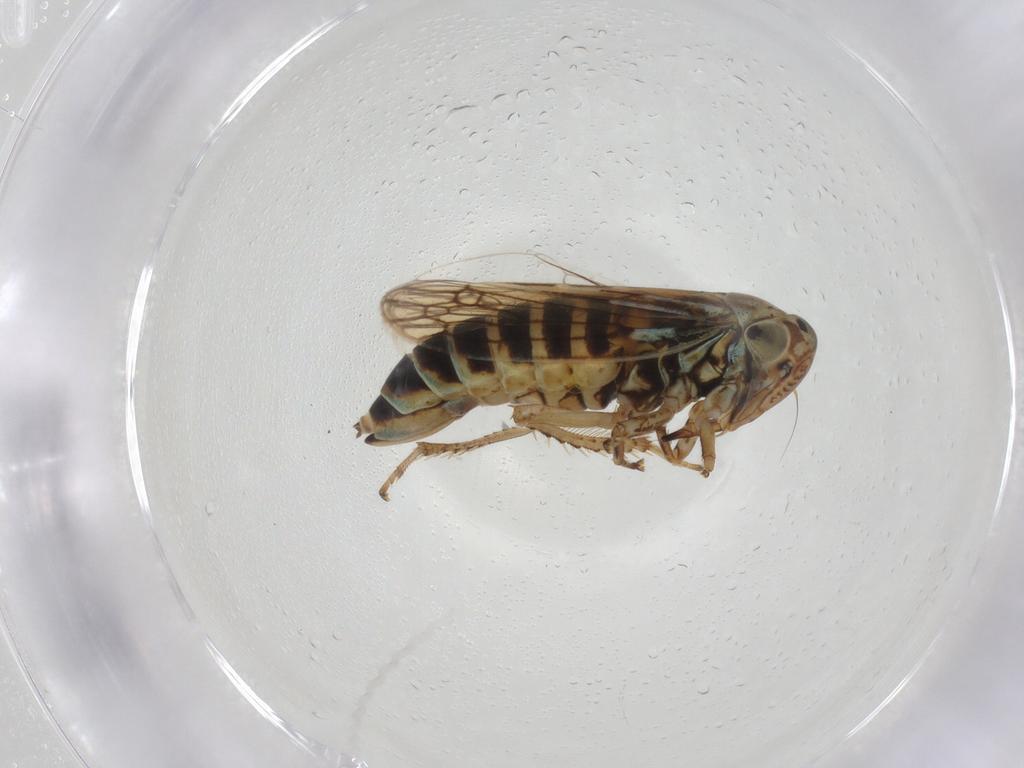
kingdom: Animalia
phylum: Arthropoda
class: Insecta
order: Hemiptera
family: Cicadellidae
